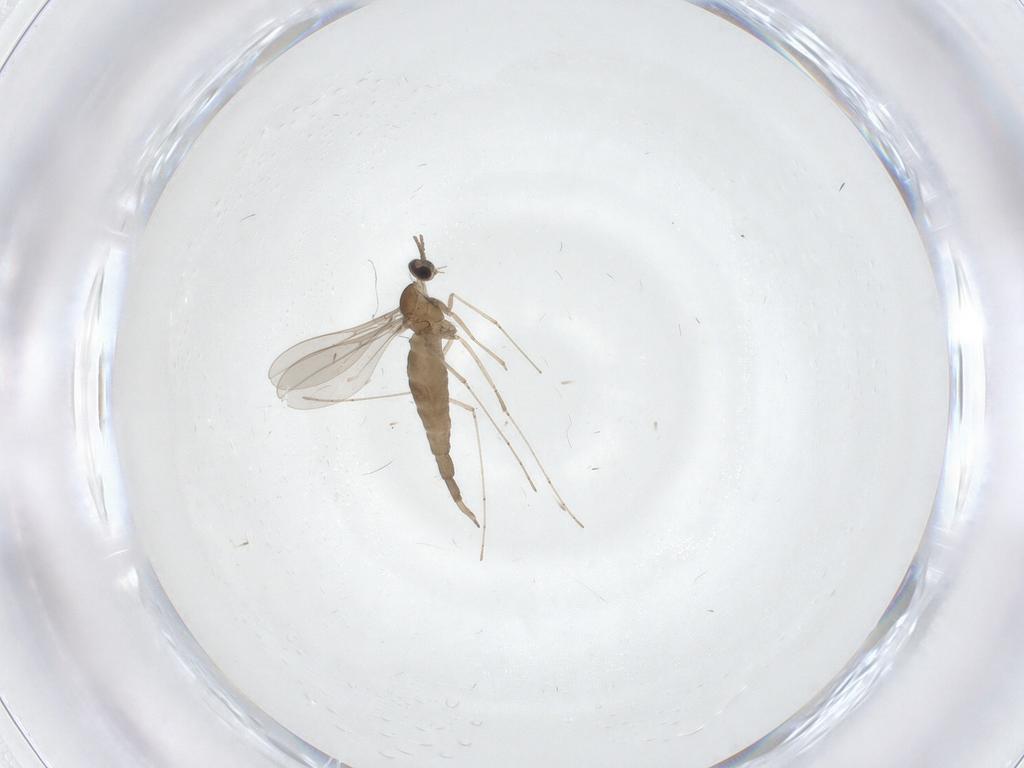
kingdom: Animalia
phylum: Arthropoda
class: Insecta
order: Diptera
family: Cecidomyiidae
